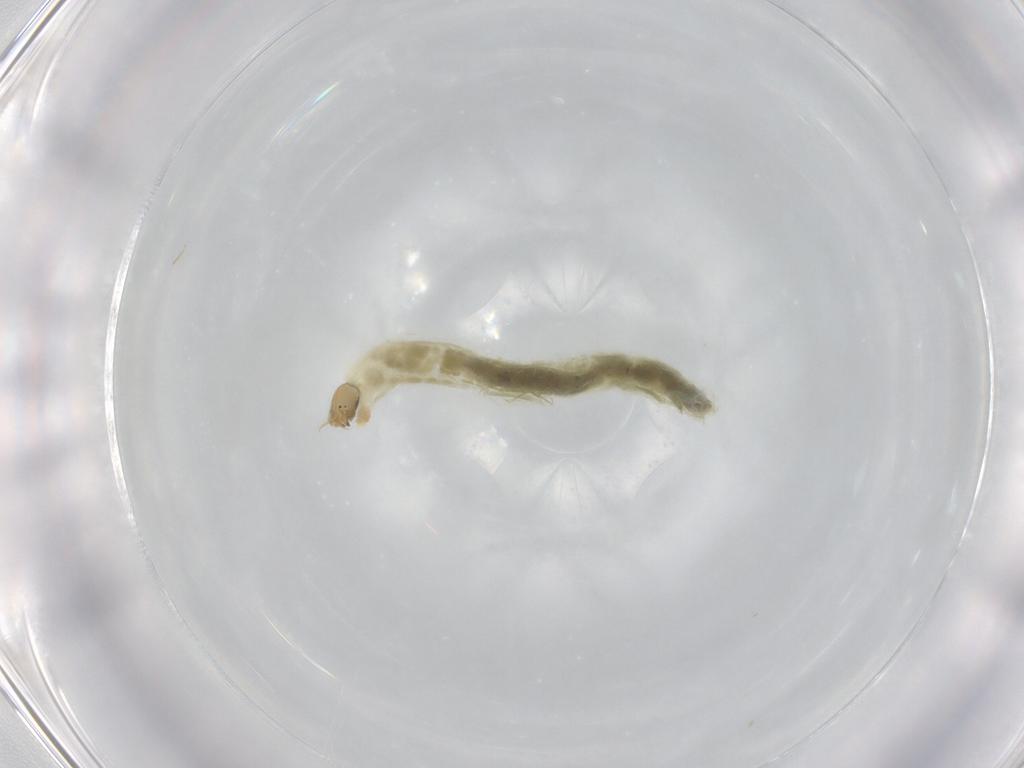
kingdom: Animalia
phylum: Arthropoda
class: Insecta
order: Diptera
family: Chironomidae
